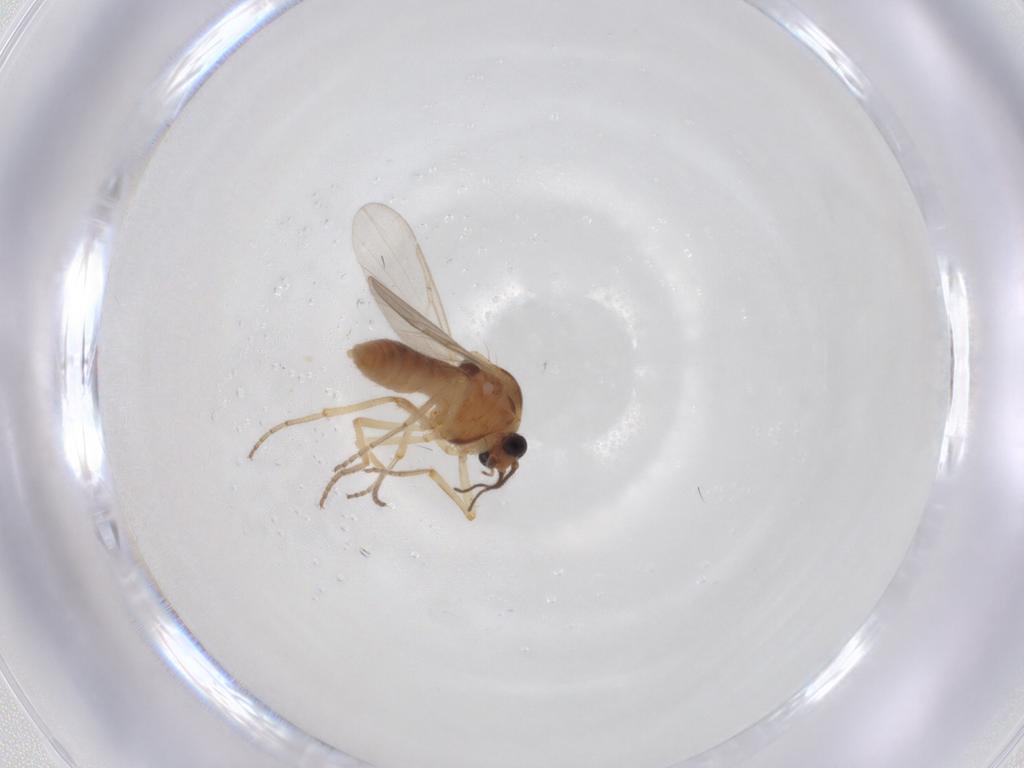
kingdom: Animalia
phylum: Arthropoda
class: Insecta
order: Diptera
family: Sciaridae
